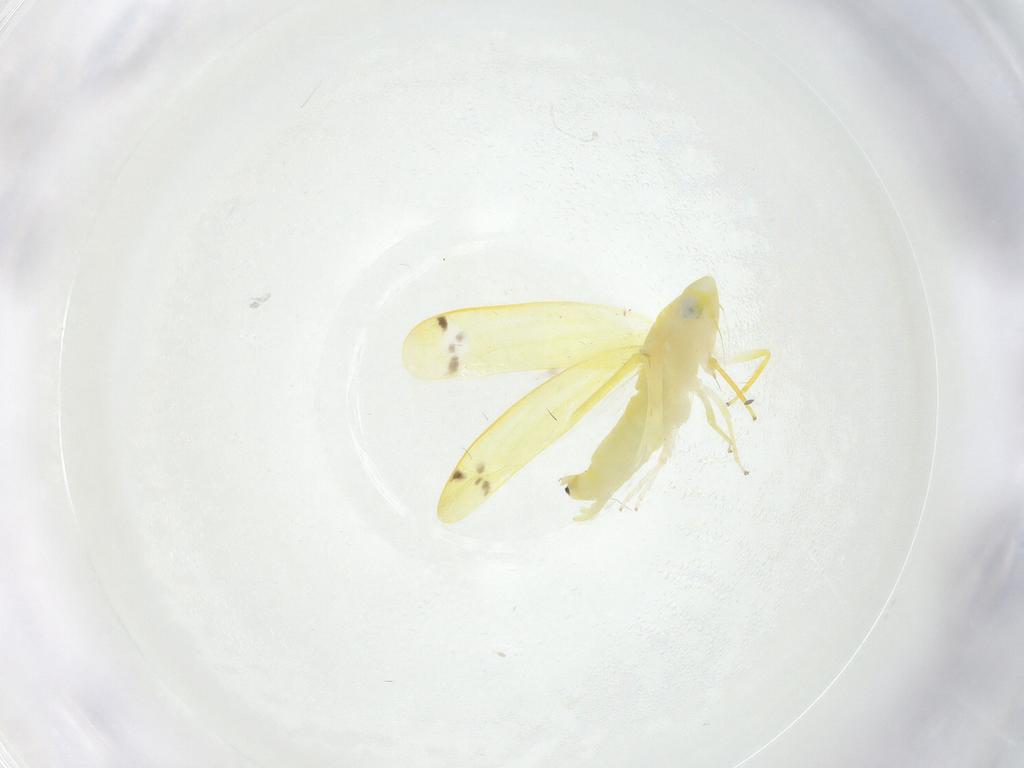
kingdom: Animalia
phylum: Arthropoda
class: Insecta
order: Hemiptera
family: Cicadellidae
